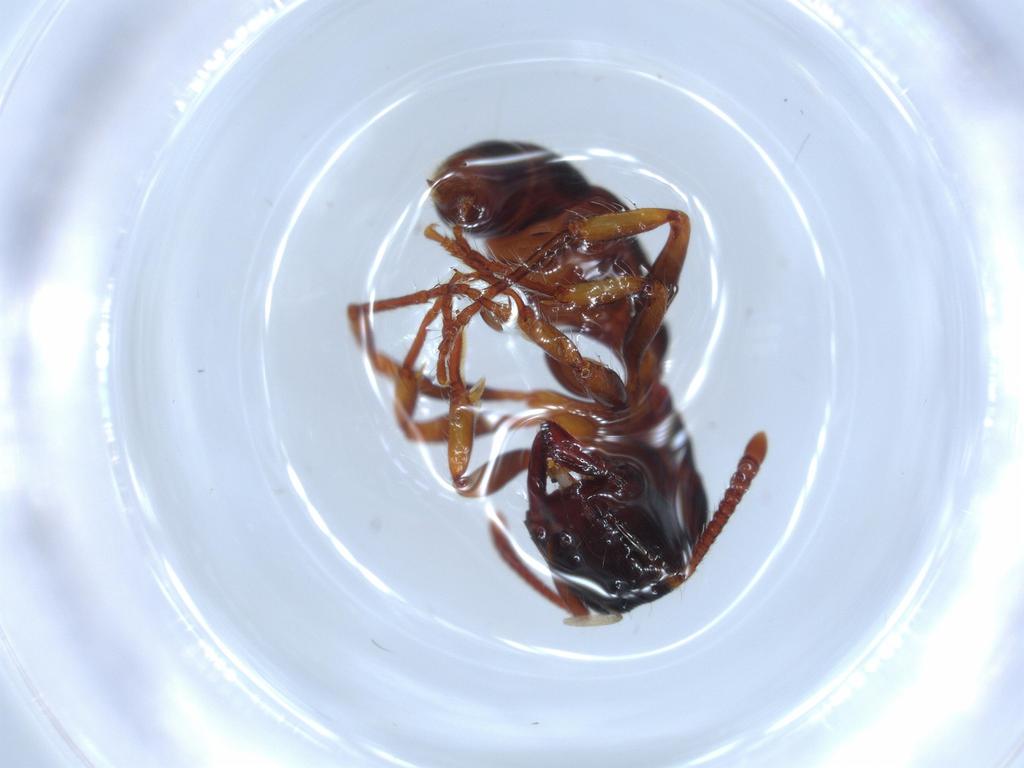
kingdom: Animalia
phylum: Arthropoda
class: Insecta
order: Hymenoptera
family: Formicidae
